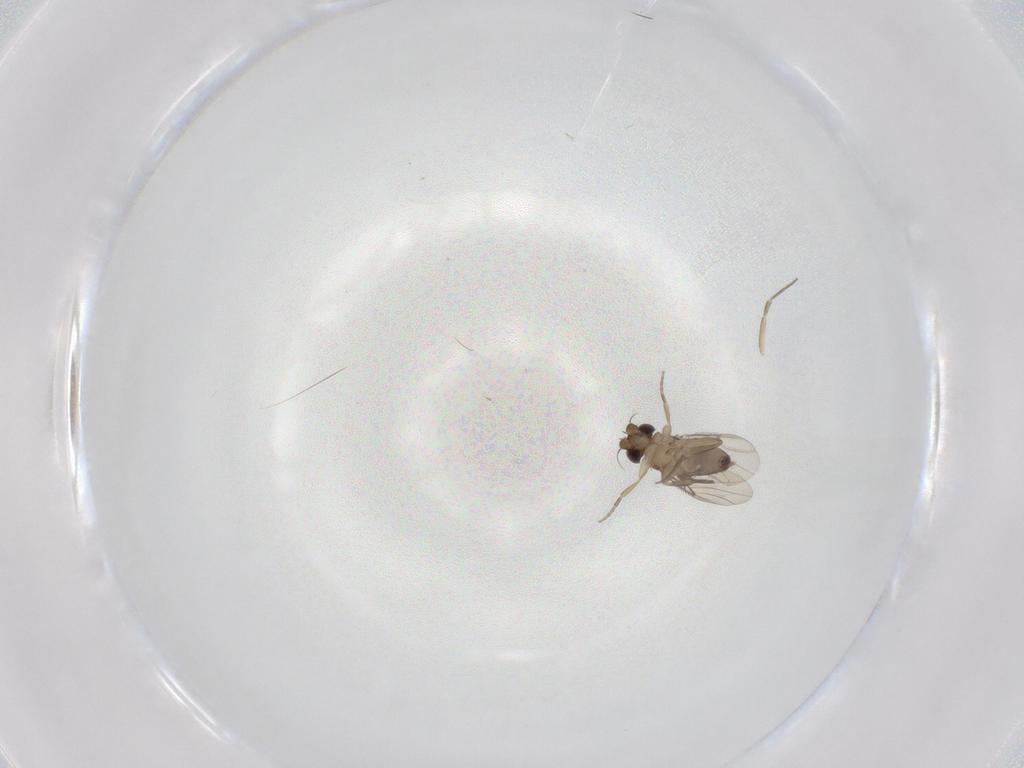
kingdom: Animalia
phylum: Arthropoda
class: Insecta
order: Diptera
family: Phoridae
